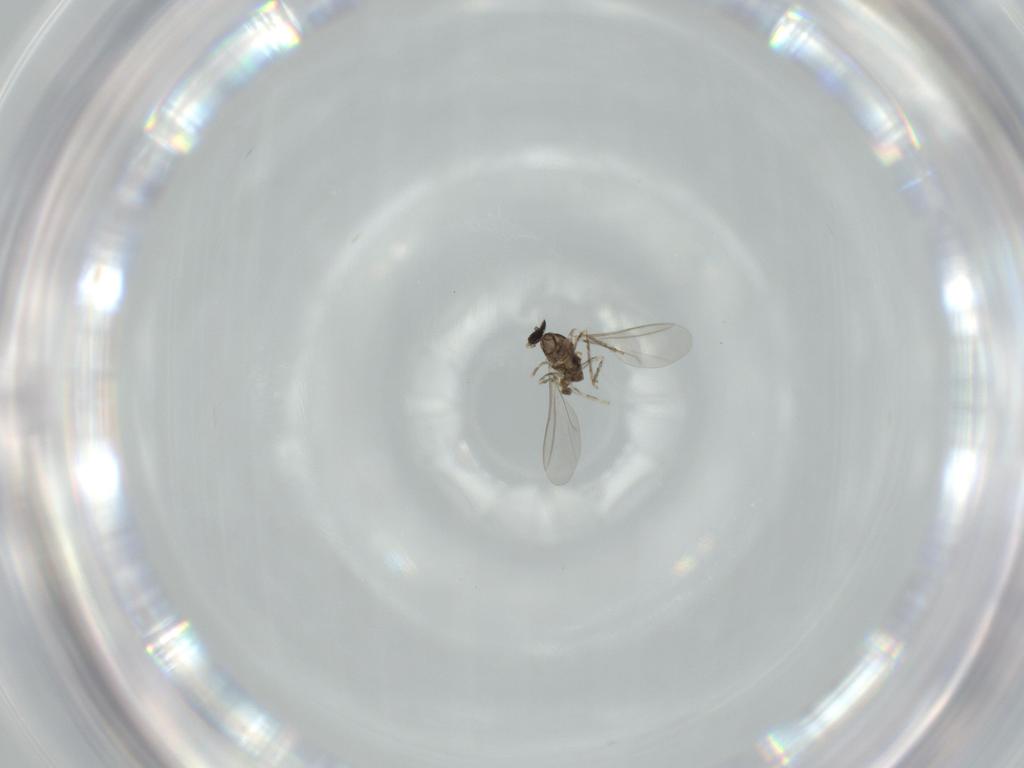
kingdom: Animalia
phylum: Arthropoda
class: Insecta
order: Diptera
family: Cecidomyiidae
